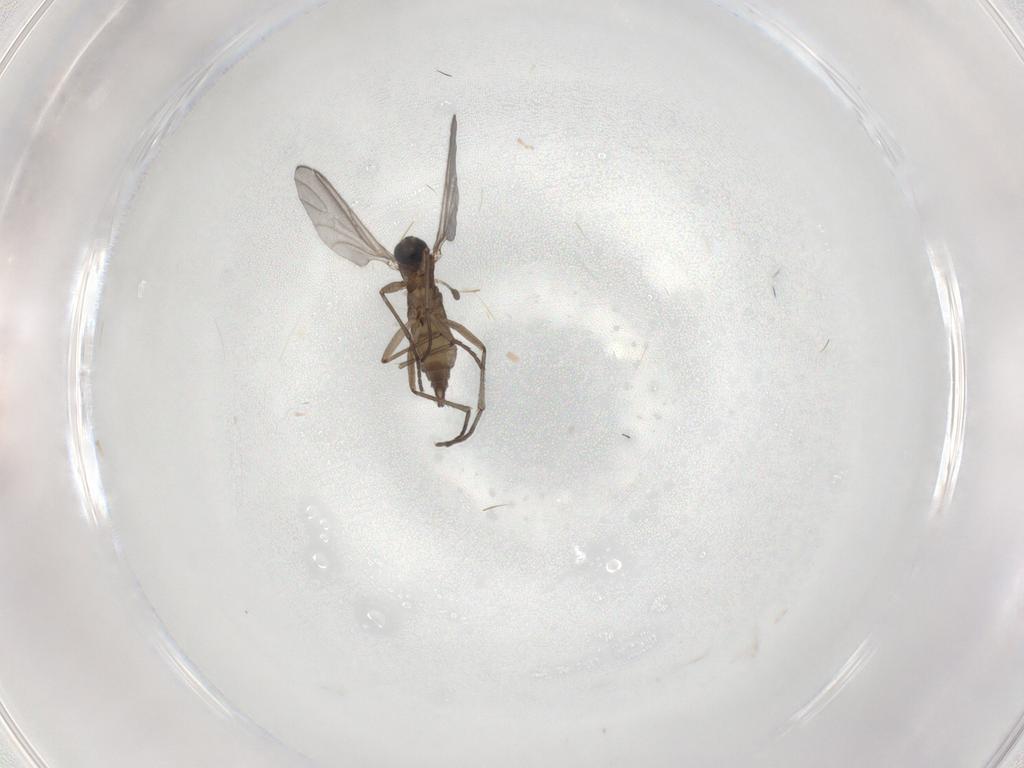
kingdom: Animalia
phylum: Arthropoda
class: Insecta
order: Diptera
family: Sciaridae
